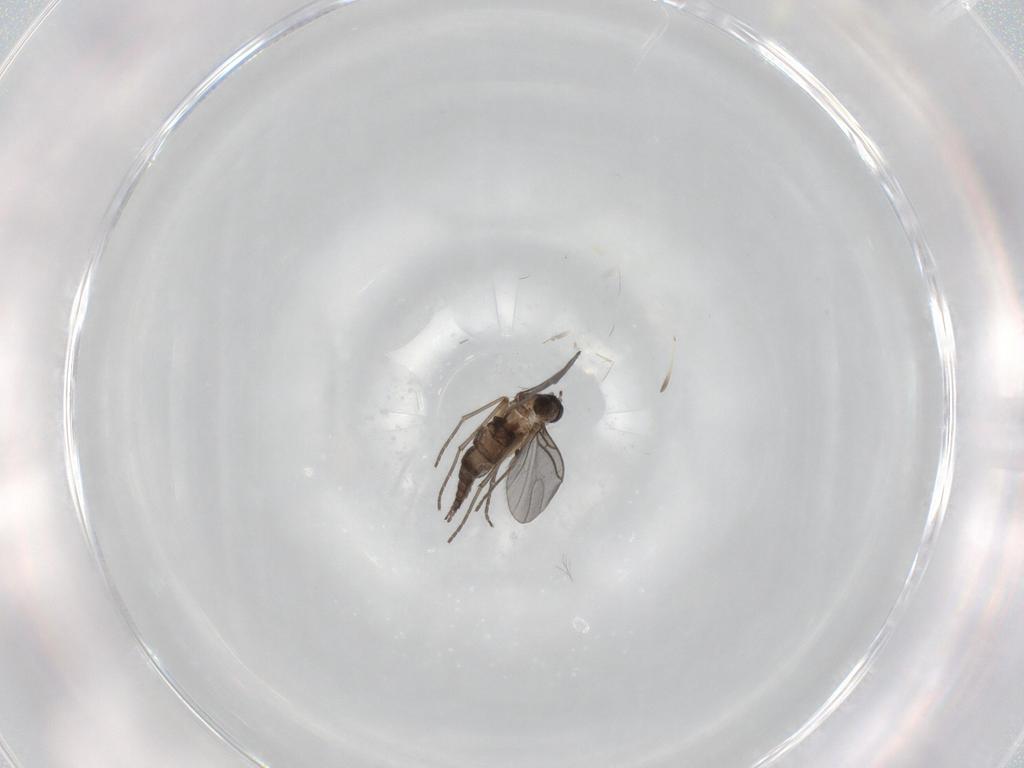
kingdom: Animalia
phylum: Arthropoda
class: Insecta
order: Diptera
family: Sciaridae
